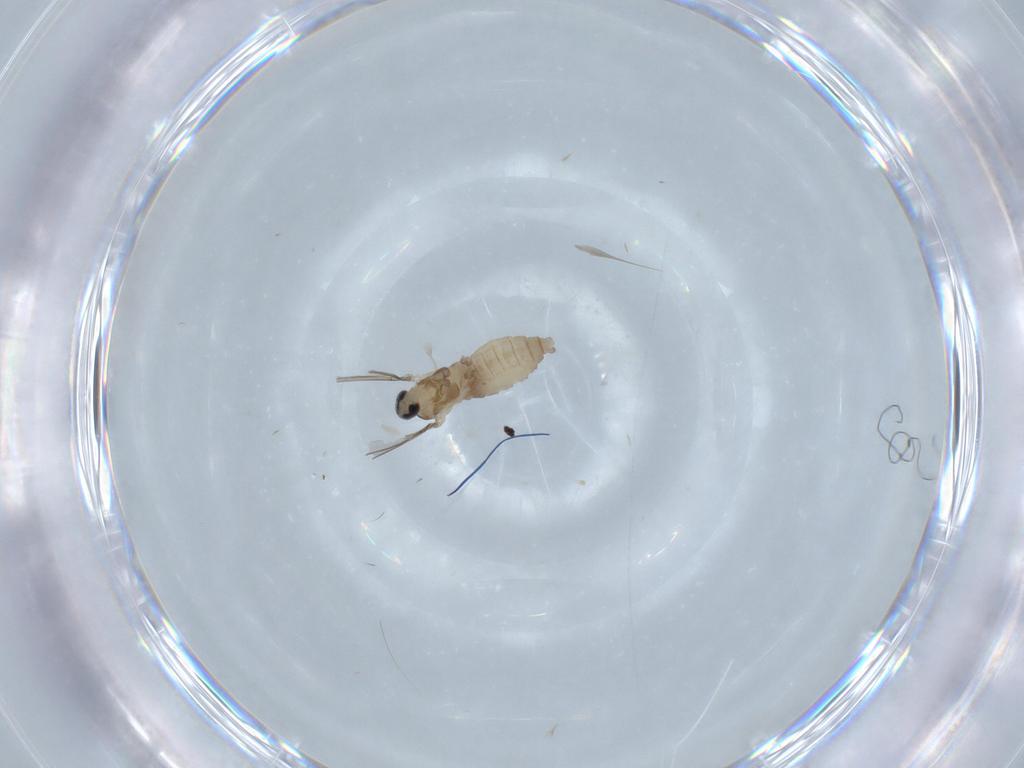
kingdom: Animalia
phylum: Arthropoda
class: Insecta
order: Diptera
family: Cecidomyiidae
